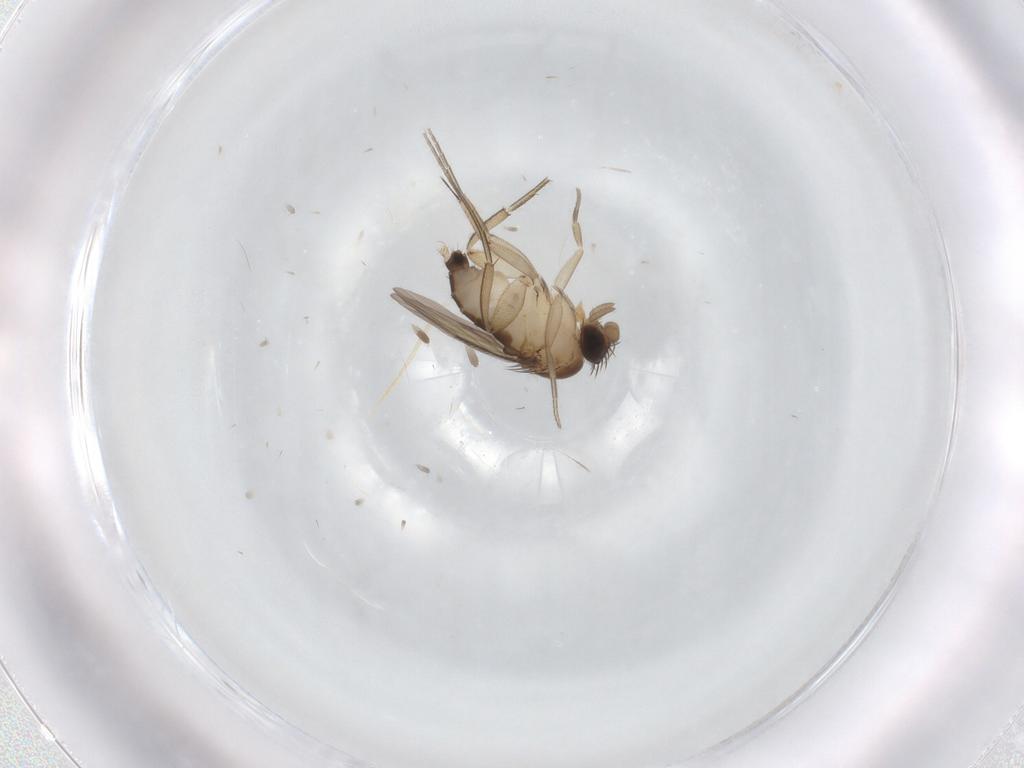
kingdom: Animalia
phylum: Arthropoda
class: Insecta
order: Diptera
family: Phoridae
